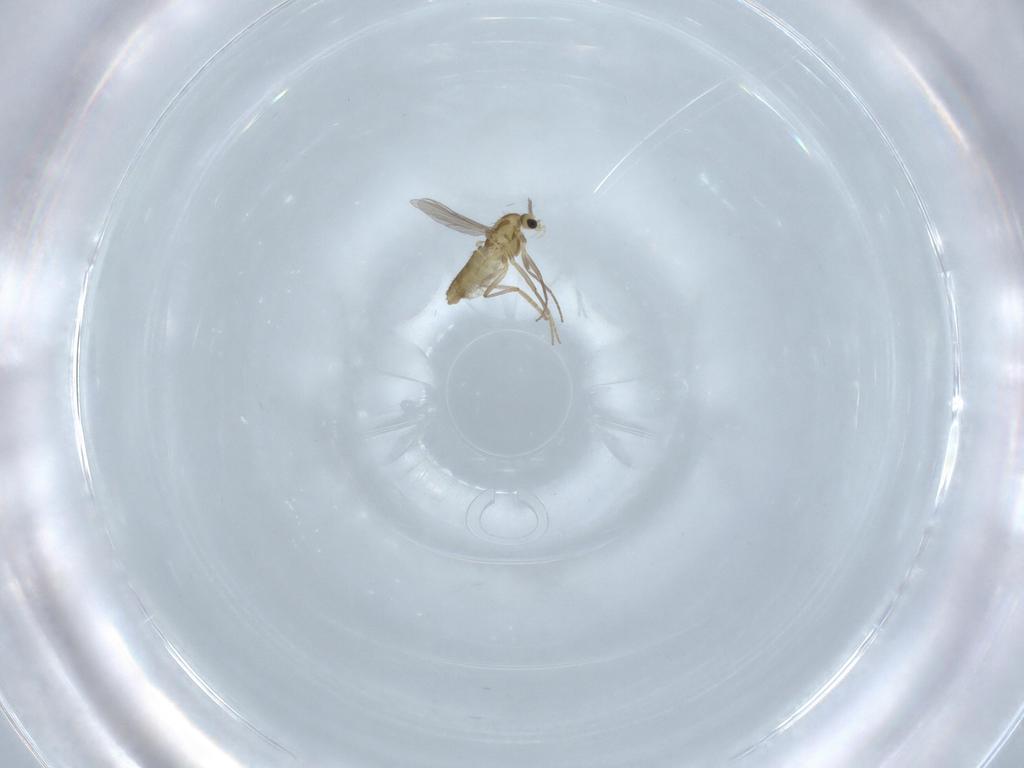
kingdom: Animalia
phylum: Arthropoda
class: Insecta
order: Diptera
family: Chironomidae
